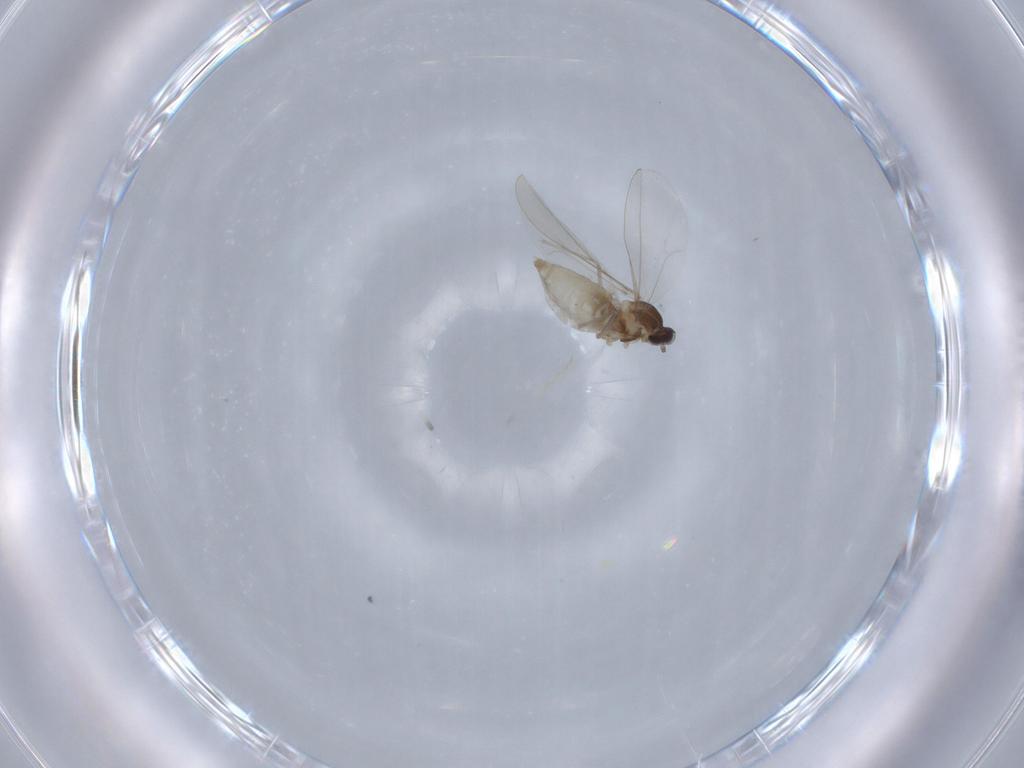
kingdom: Animalia
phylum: Arthropoda
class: Insecta
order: Diptera
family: Cecidomyiidae
